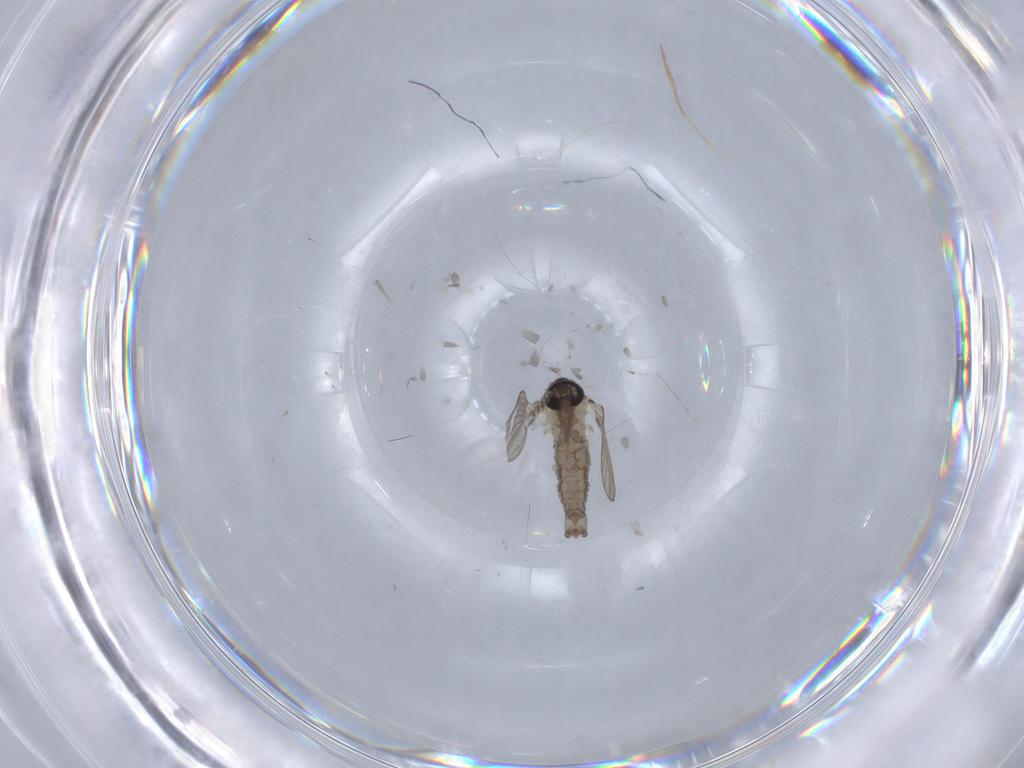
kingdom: Animalia
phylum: Arthropoda
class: Insecta
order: Diptera
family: Psychodidae
